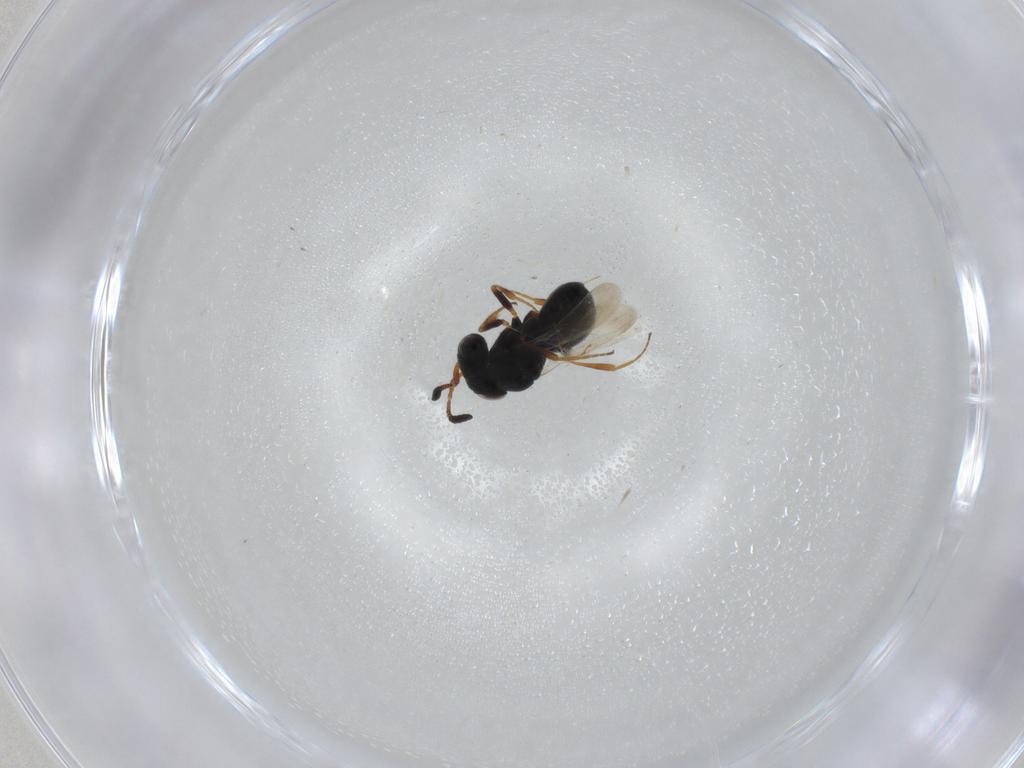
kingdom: Animalia
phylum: Arthropoda
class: Insecta
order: Hymenoptera
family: Scelionidae
